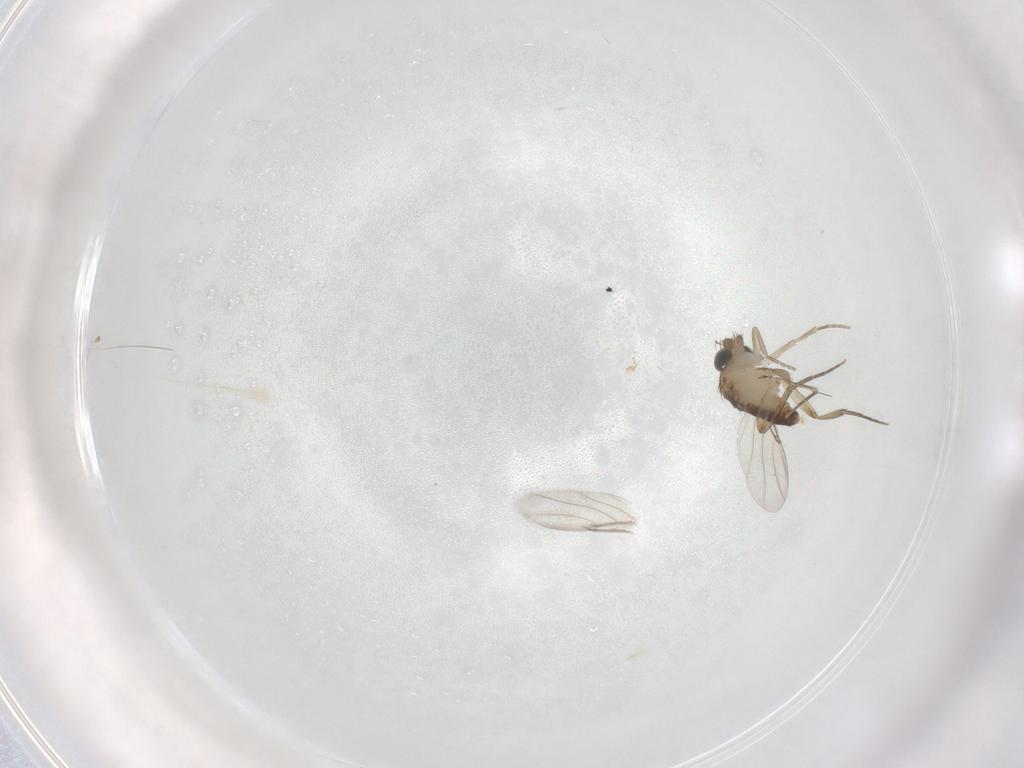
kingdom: Animalia
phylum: Arthropoda
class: Insecta
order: Diptera
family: Phoridae
